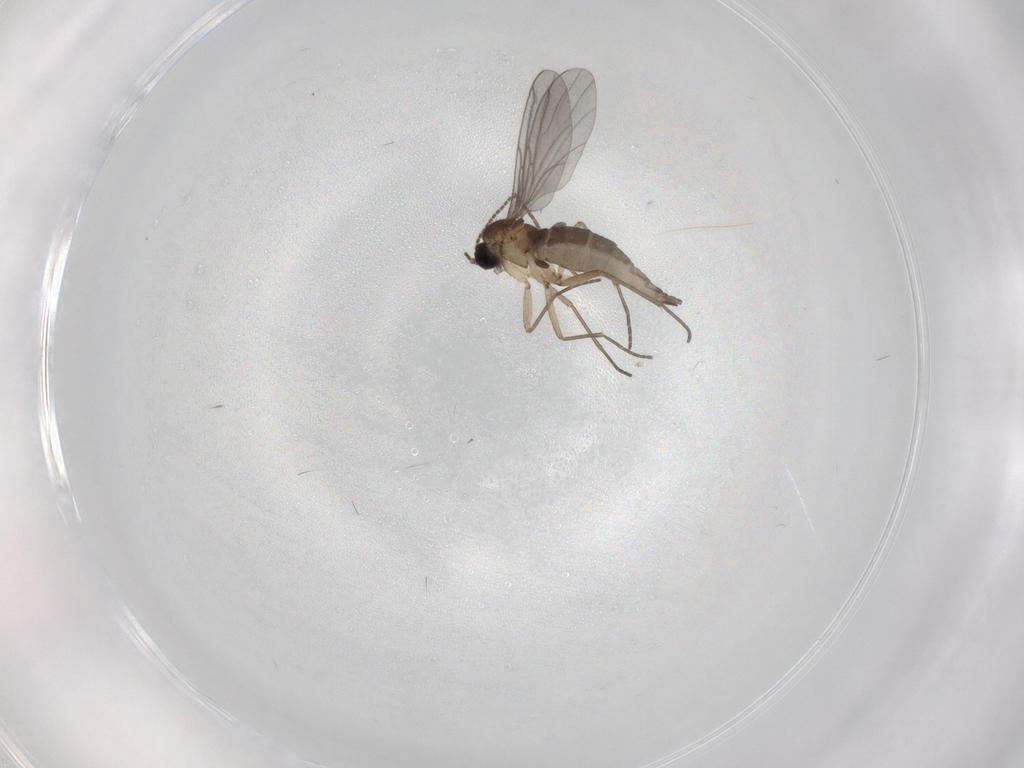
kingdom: Animalia
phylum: Arthropoda
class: Insecta
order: Diptera
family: Sciaridae
